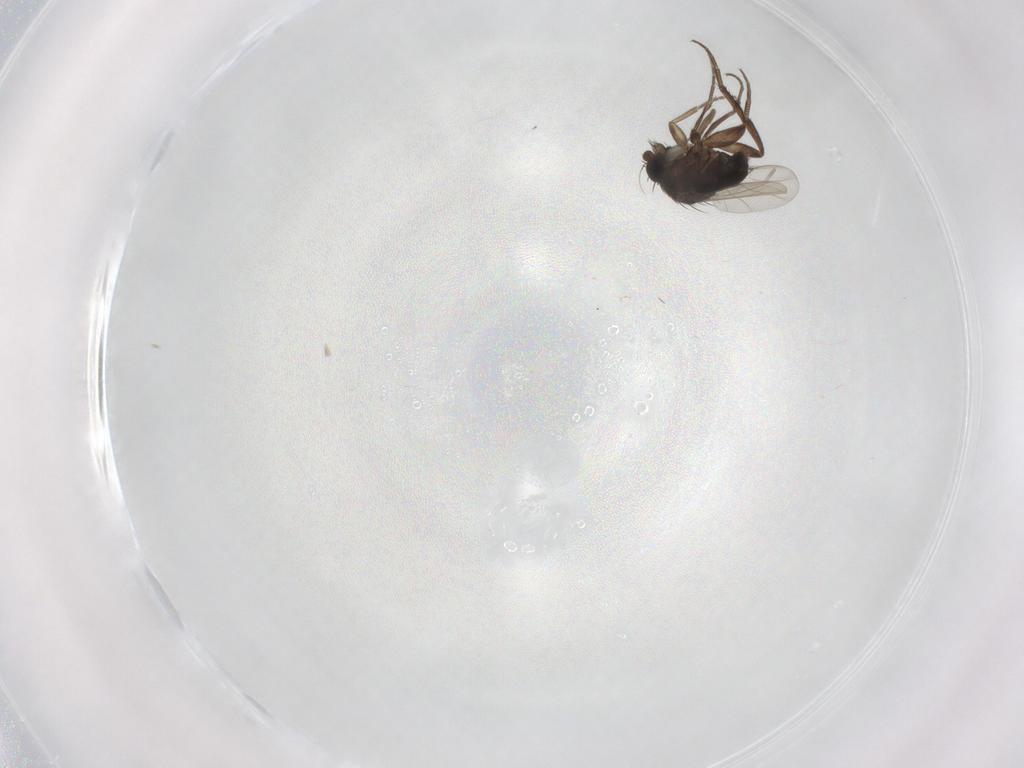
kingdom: Animalia
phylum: Arthropoda
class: Insecta
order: Diptera
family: Phoridae
